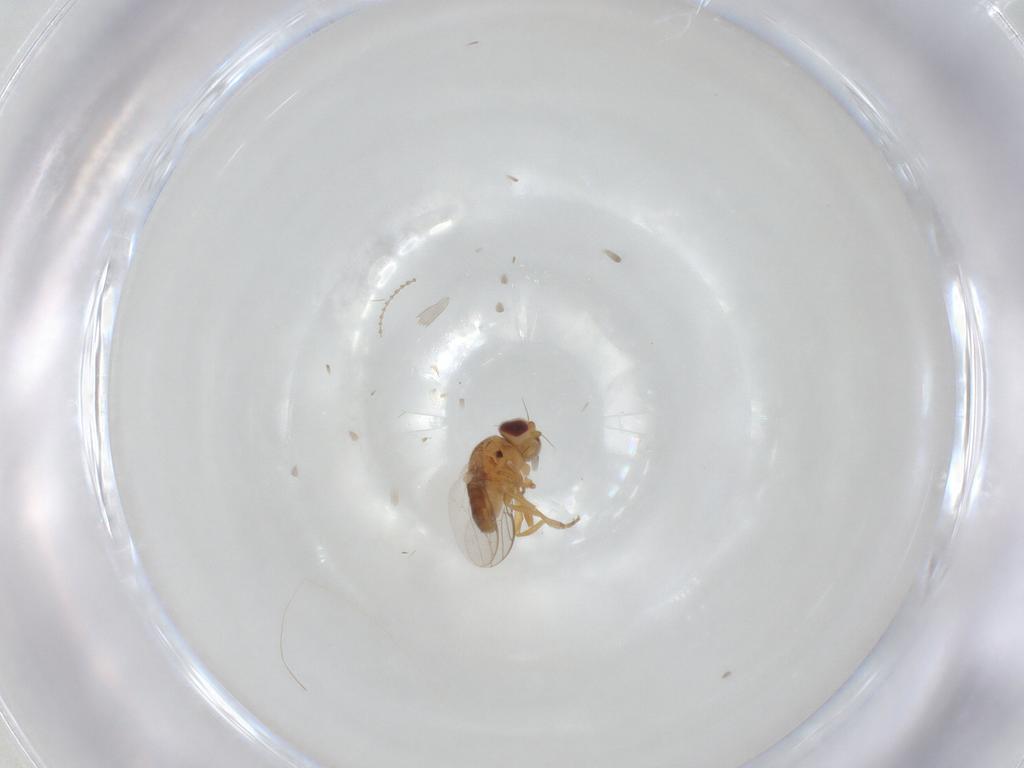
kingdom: Animalia
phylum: Arthropoda
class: Insecta
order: Diptera
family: Chloropidae
